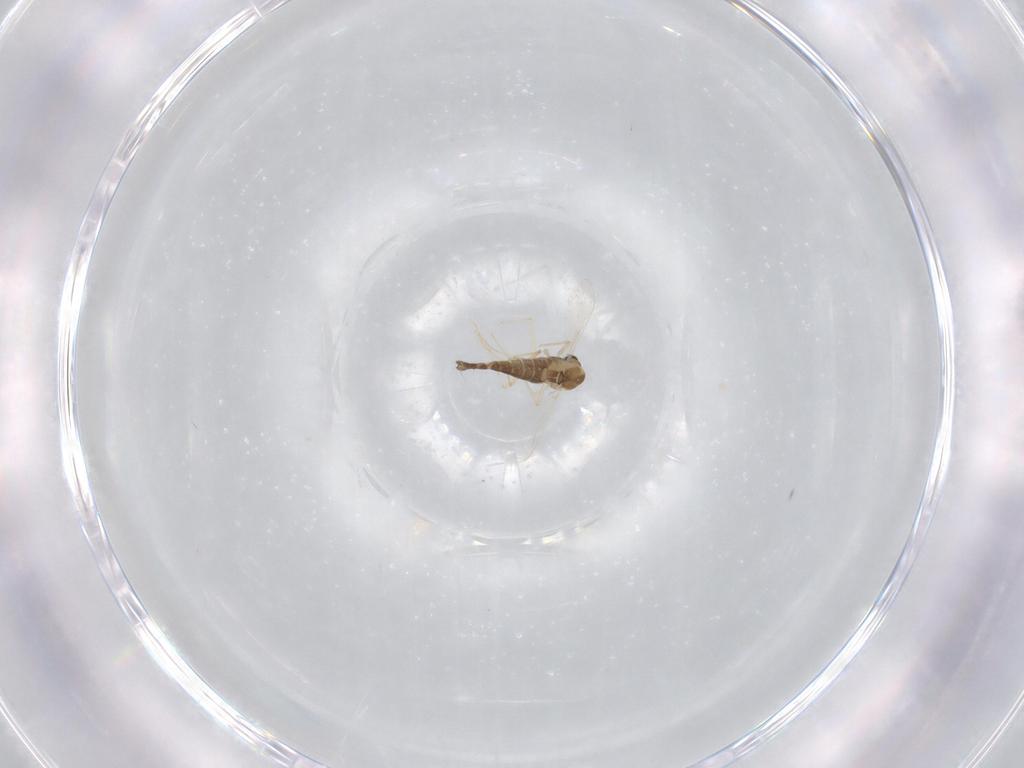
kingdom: Animalia
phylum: Arthropoda
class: Insecta
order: Diptera
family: Chironomidae
